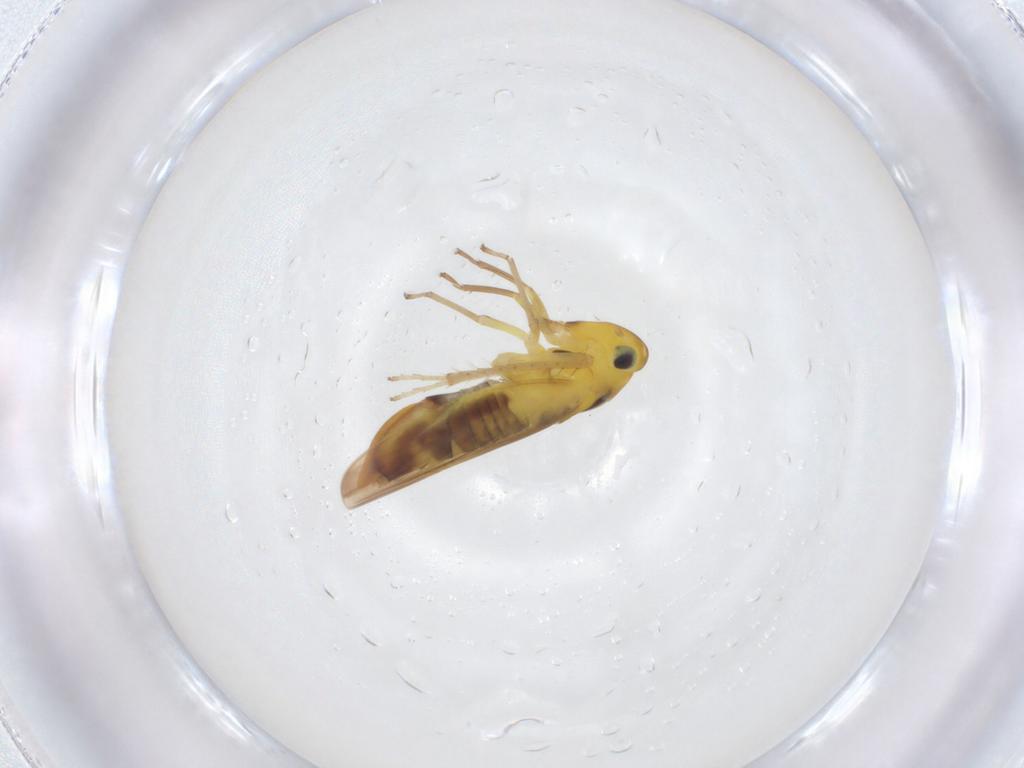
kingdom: Animalia
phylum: Arthropoda
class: Insecta
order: Hemiptera
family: Cicadellidae
